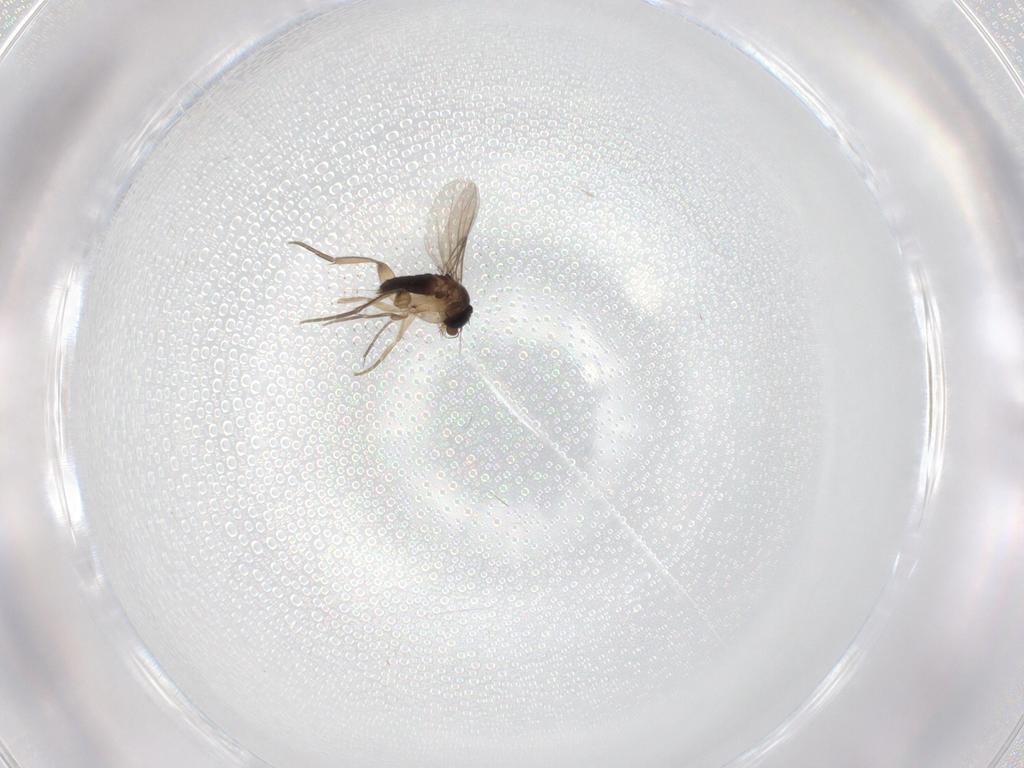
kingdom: Animalia
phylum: Arthropoda
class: Insecta
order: Diptera
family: Phoridae
